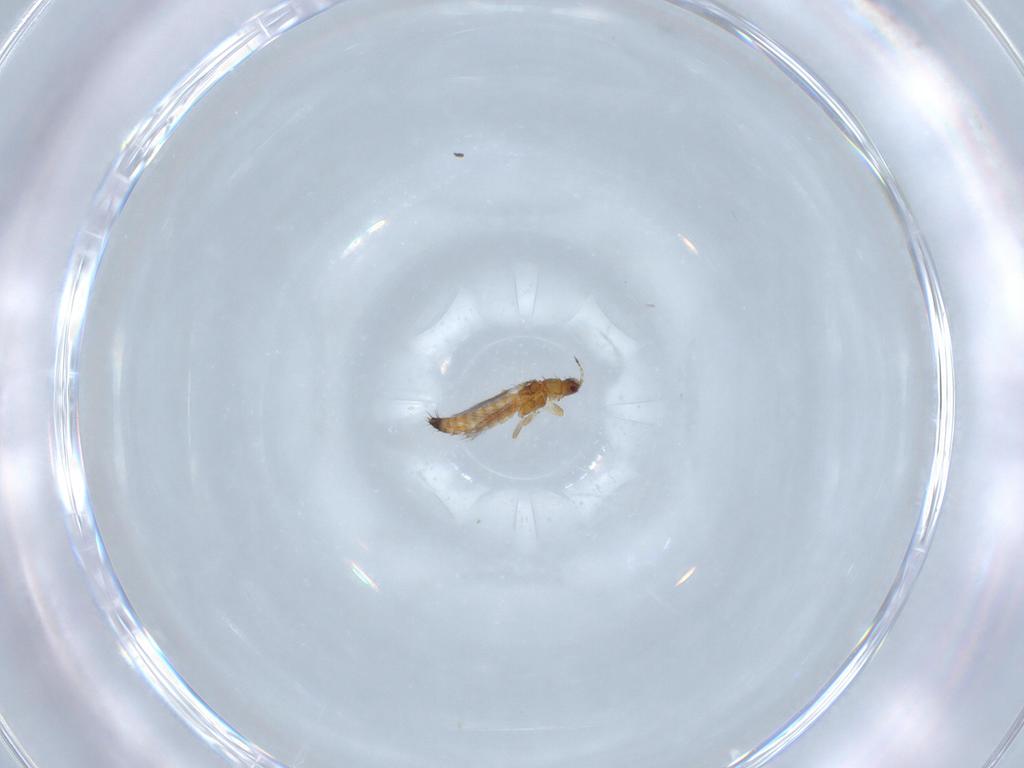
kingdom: Animalia
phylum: Arthropoda
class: Insecta
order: Thysanoptera
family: Thripidae
